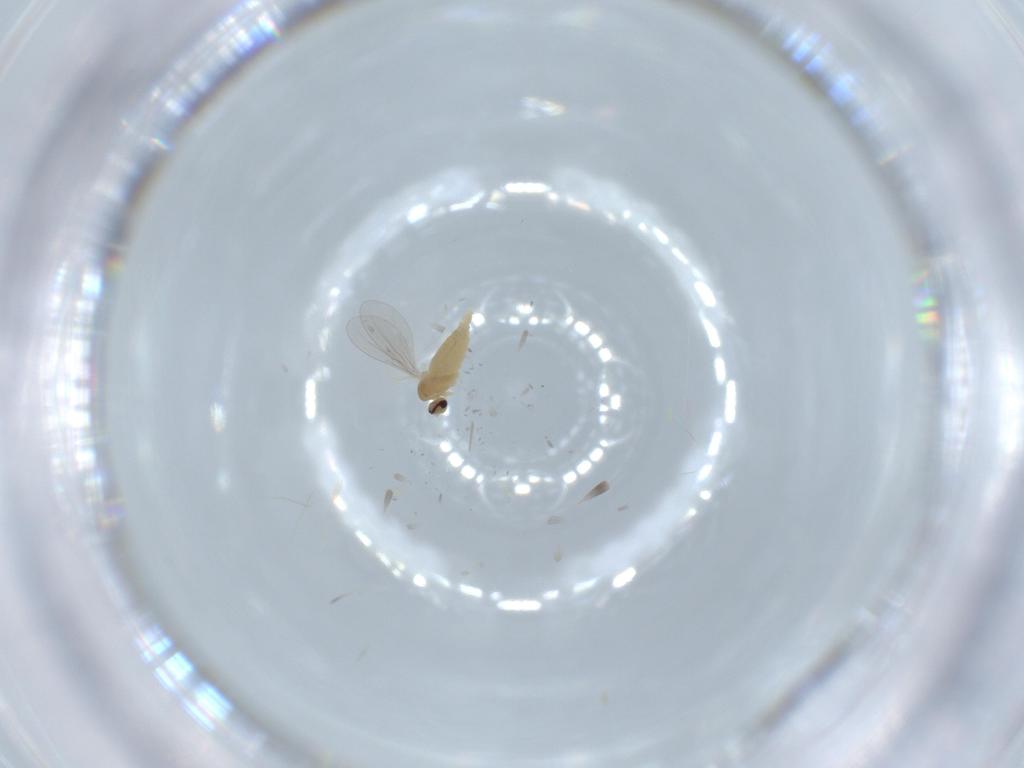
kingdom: Animalia
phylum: Arthropoda
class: Insecta
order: Diptera
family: Cecidomyiidae
